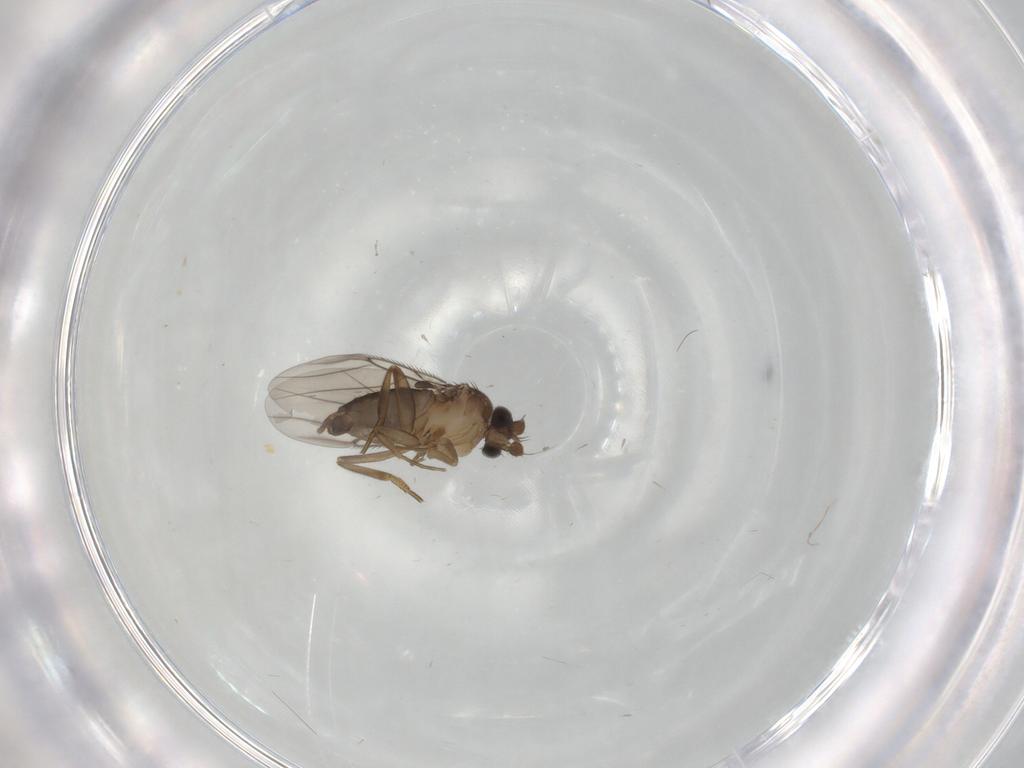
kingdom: Animalia
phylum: Arthropoda
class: Insecta
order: Diptera
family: Phoridae
